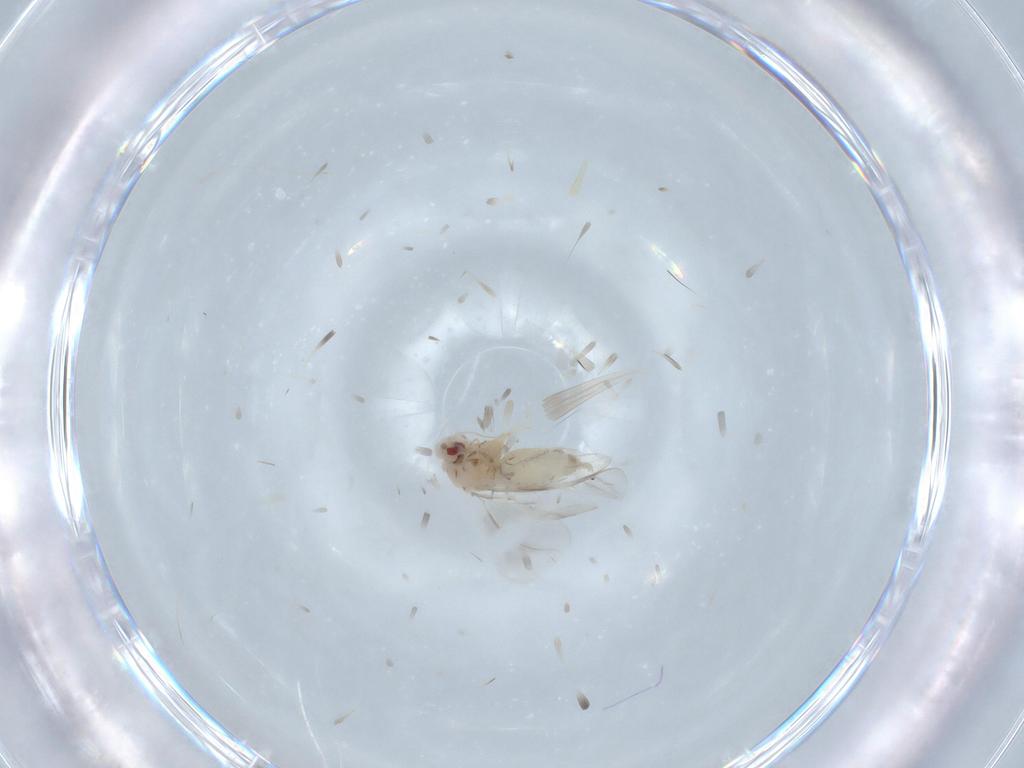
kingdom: Animalia
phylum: Arthropoda
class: Insecta
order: Hemiptera
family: Aleyrodidae
